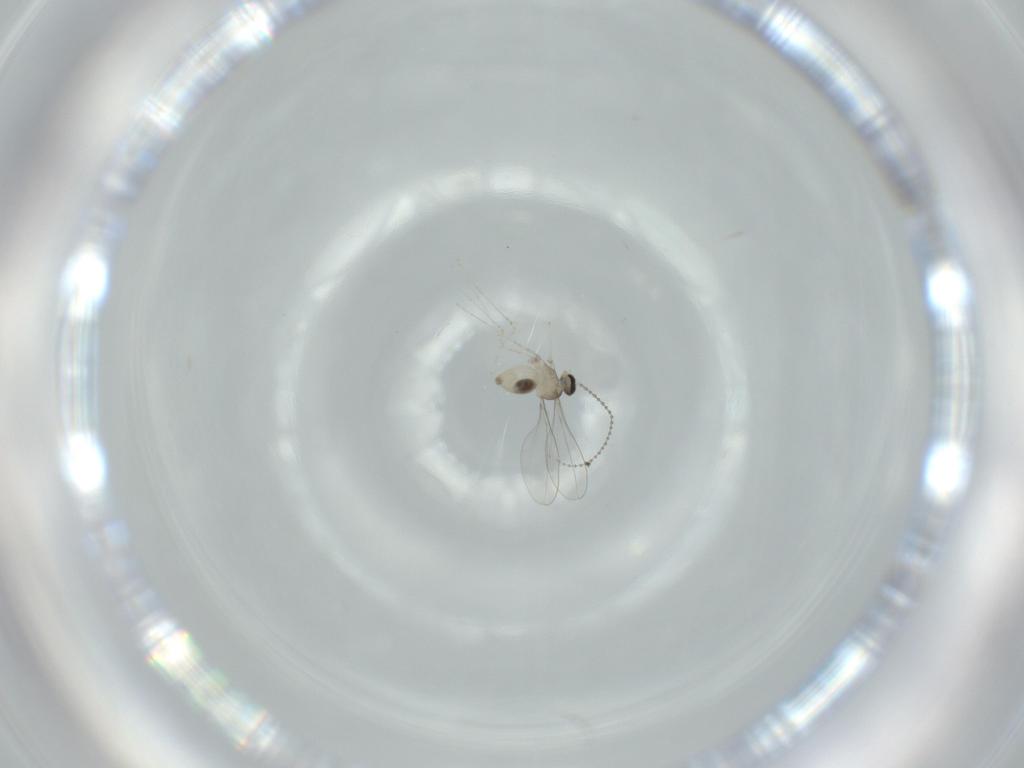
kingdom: Animalia
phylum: Arthropoda
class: Insecta
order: Diptera
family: Cecidomyiidae
